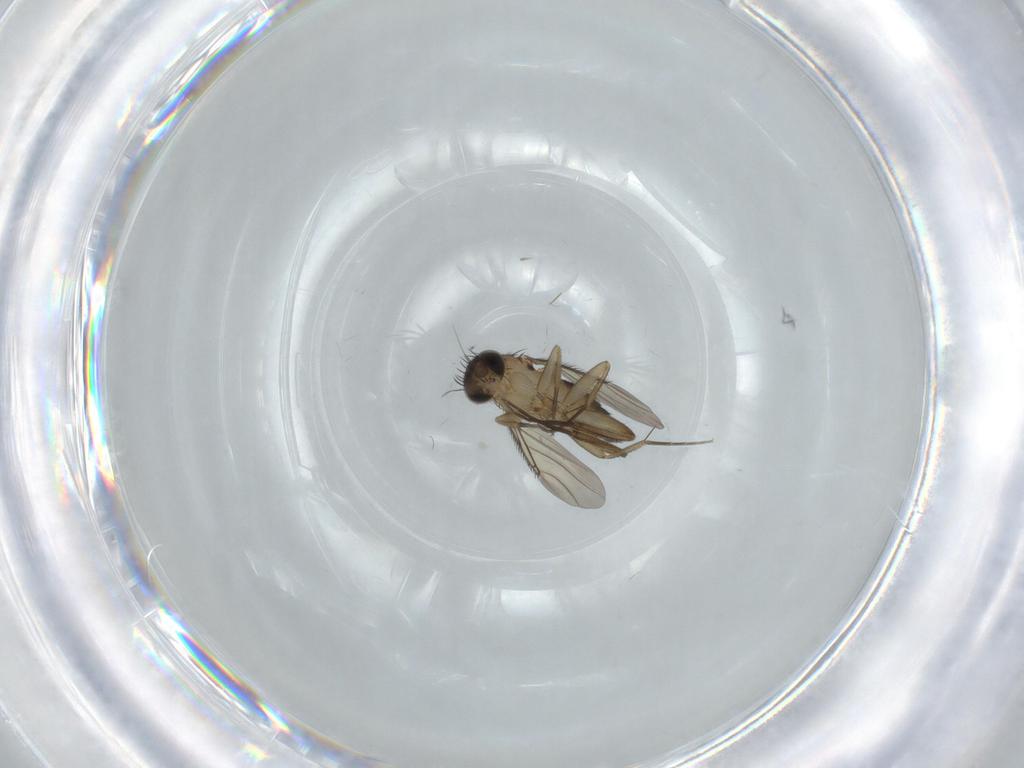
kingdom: Animalia
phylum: Arthropoda
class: Insecta
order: Diptera
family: Phoridae
